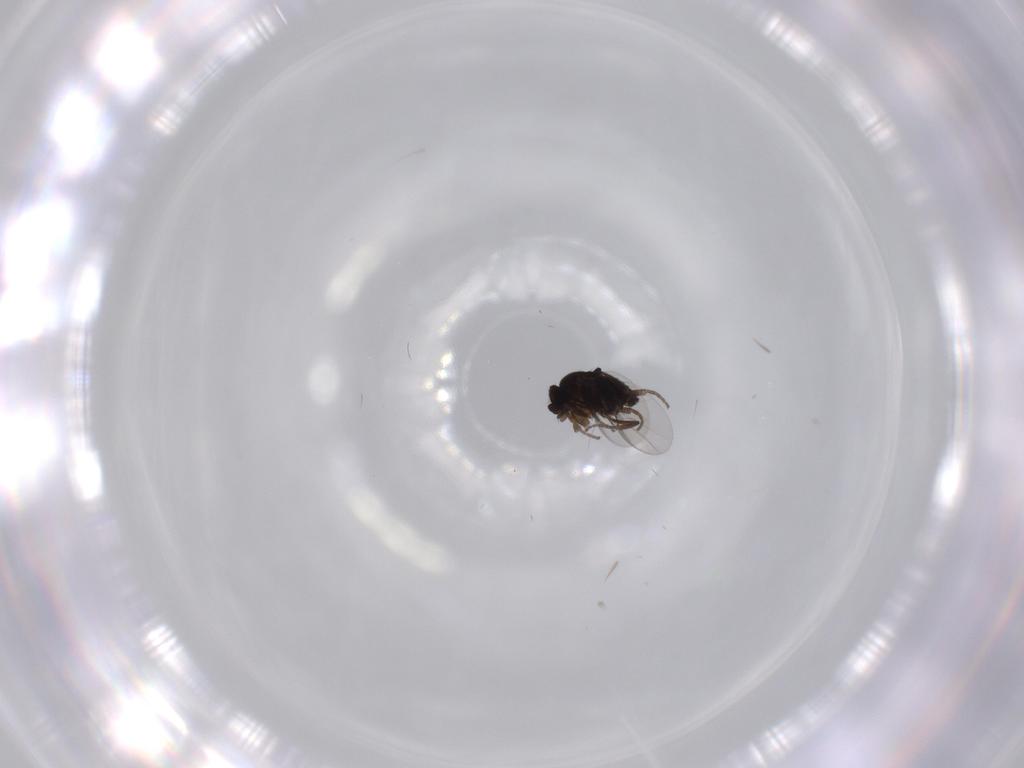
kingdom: Animalia
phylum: Arthropoda
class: Insecta
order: Diptera
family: Phoridae
